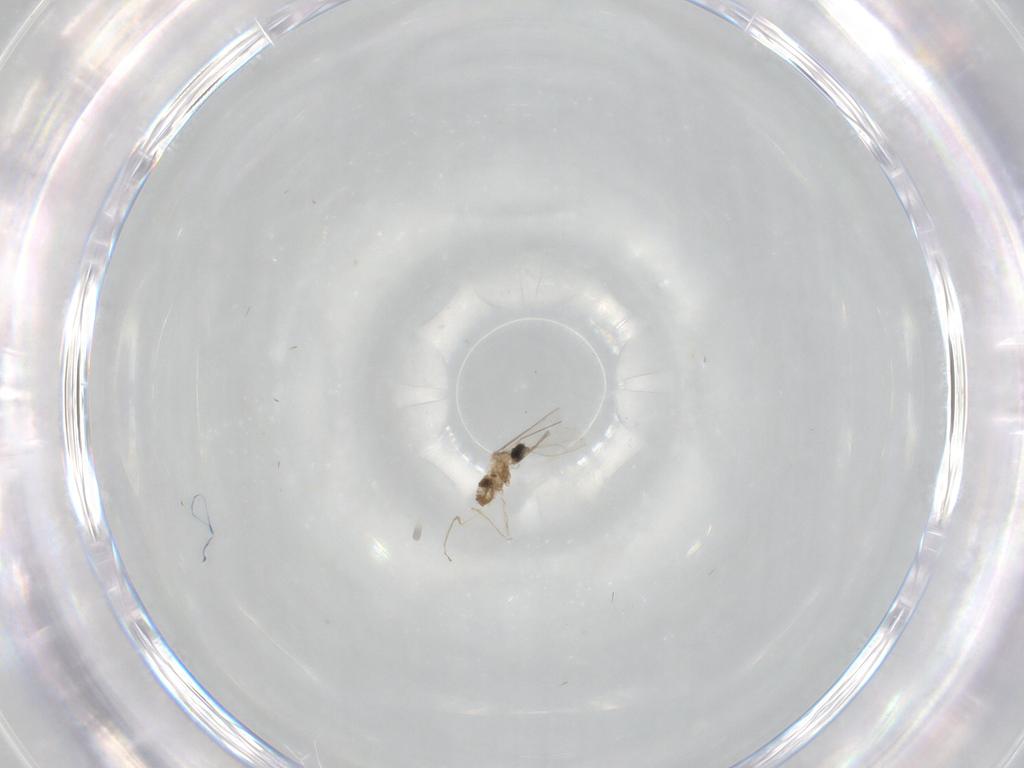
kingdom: Animalia
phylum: Arthropoda
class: Insecta
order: Diptera
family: Cecidomyiidae
